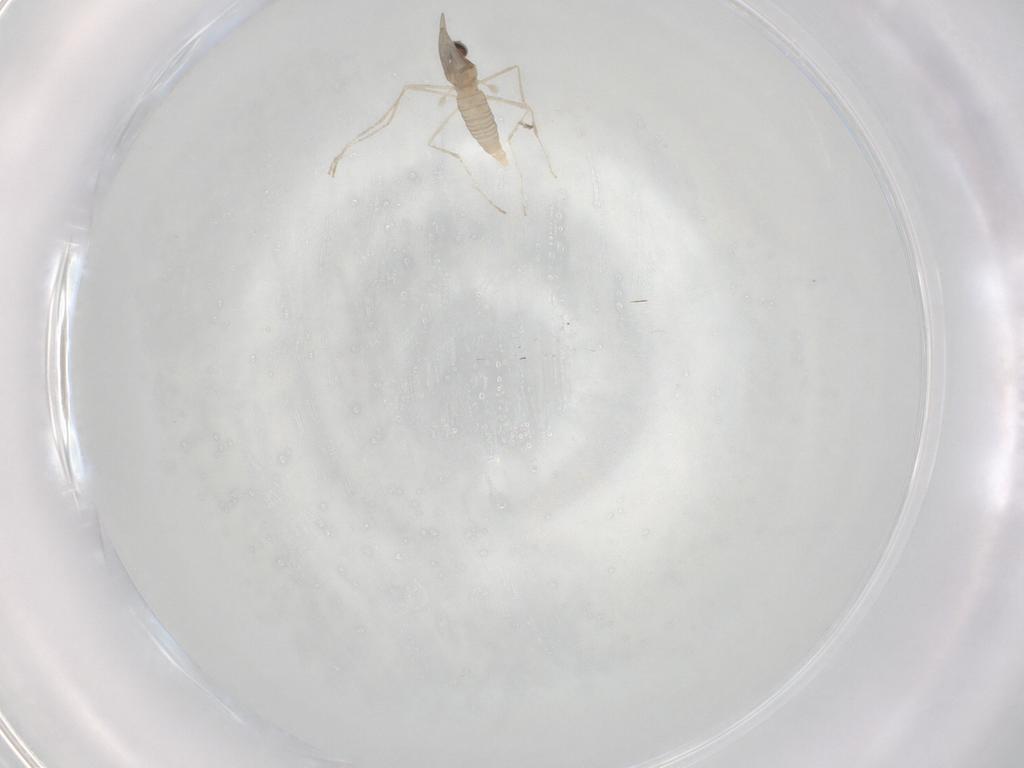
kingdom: Animalia
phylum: Arthropoda
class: Insecta
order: Diptera
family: Cecidomyiidae
